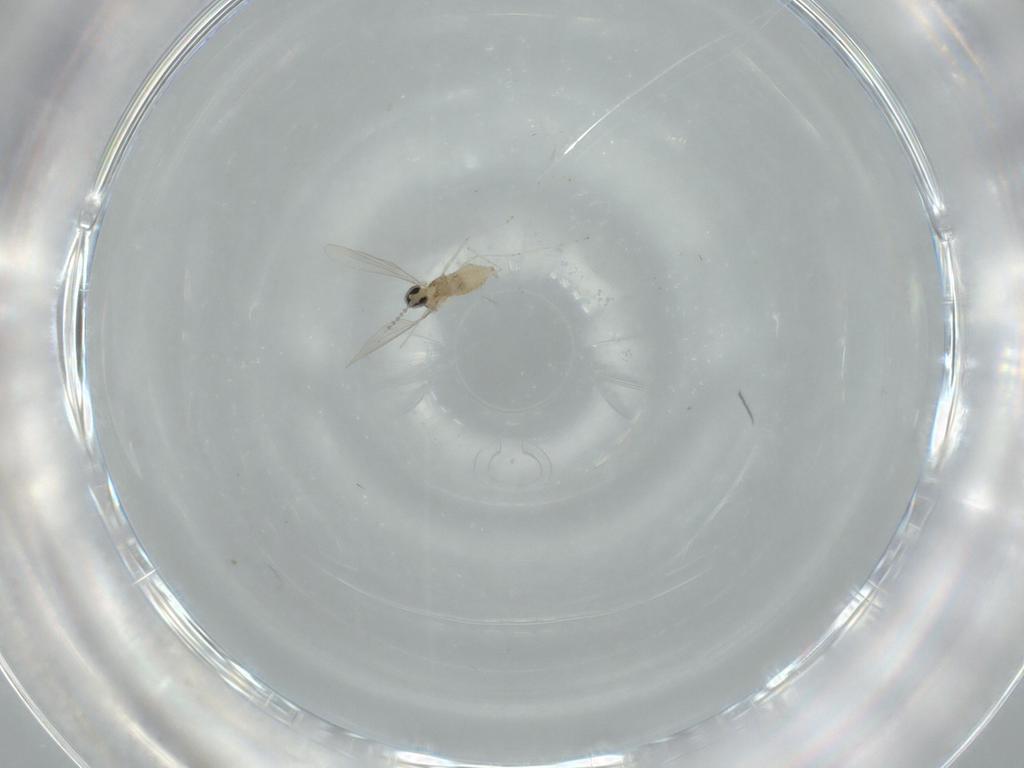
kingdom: Animalia
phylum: Arthropoda
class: Insecta
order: Diptera
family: Cecidomyiidae
